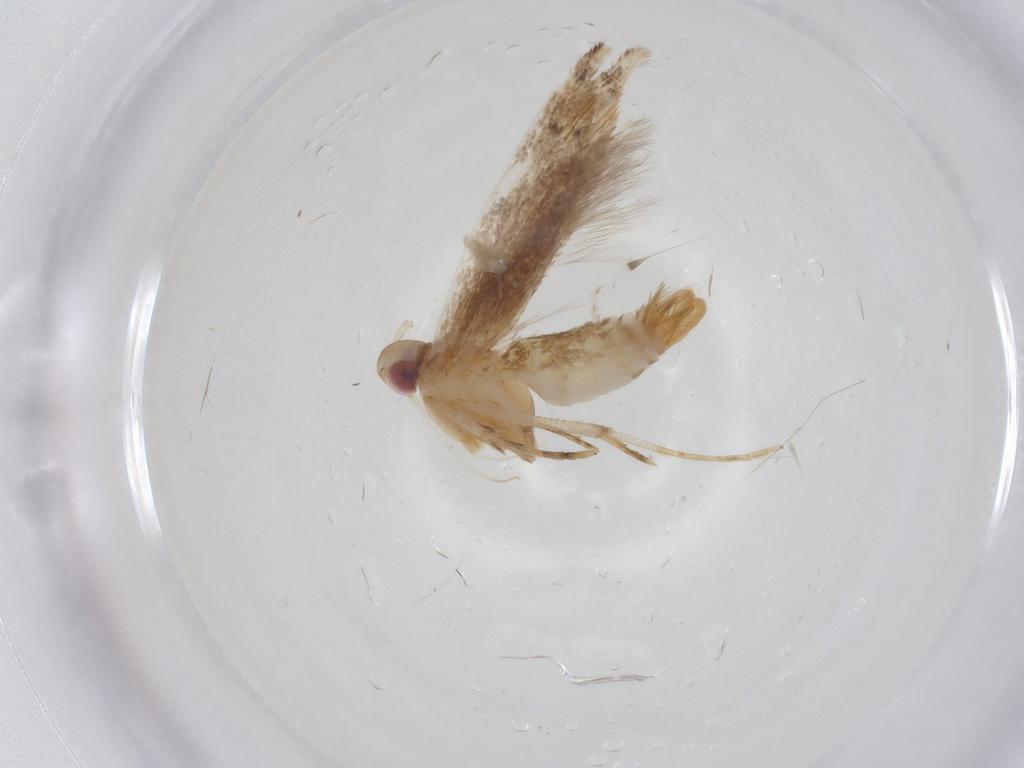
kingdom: Animalia
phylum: Arthropoda
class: Insecta
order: Lepidoptera
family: Cosmopterigidae
